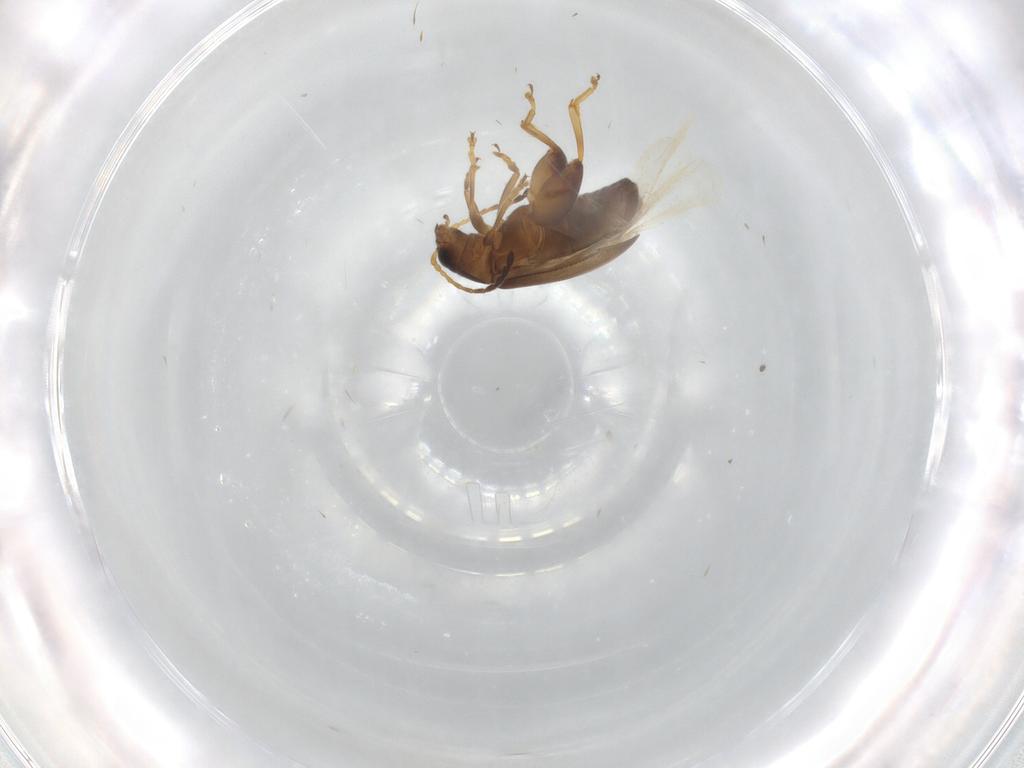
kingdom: Animalia
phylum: Arthropoda
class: Insecta
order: Coleoptera
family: Chrysomelidae
